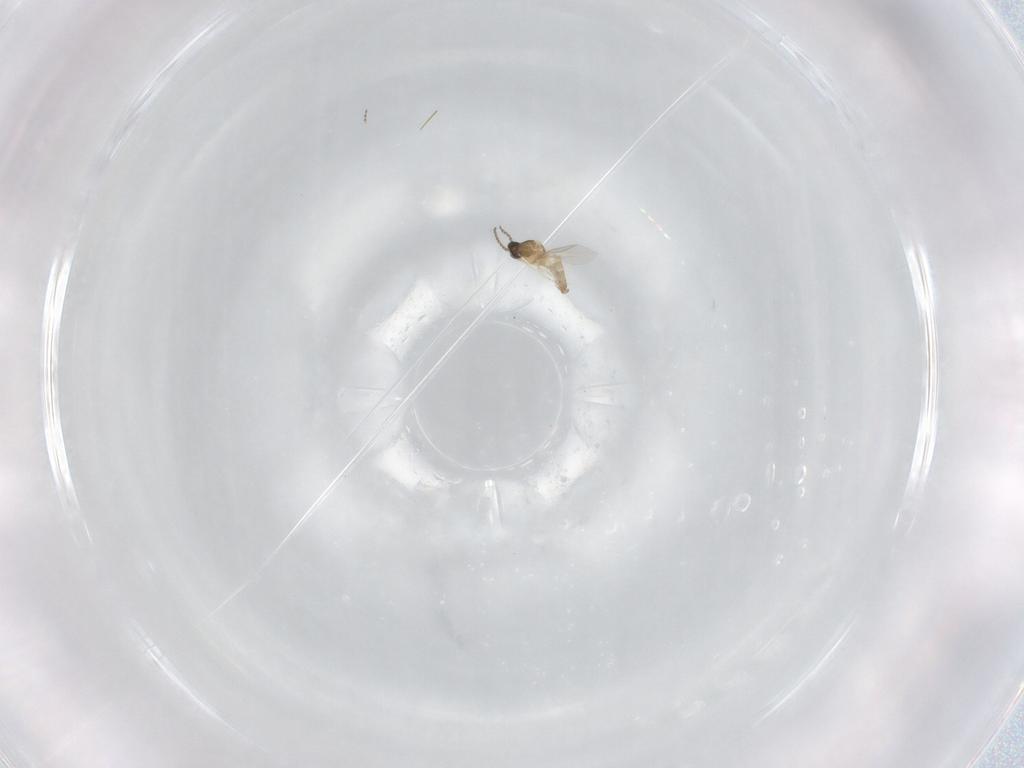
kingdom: Animalia
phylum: Arthropoda
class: Insecta
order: Diptera
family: Cecidomyiidae
